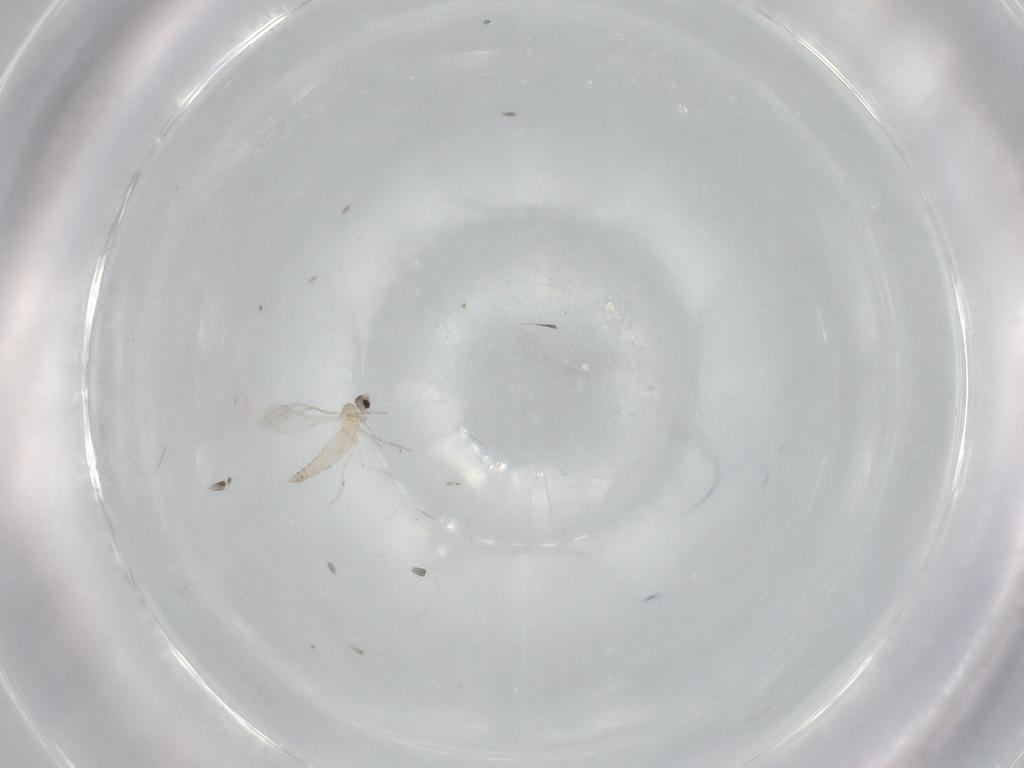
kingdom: Animalia
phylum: Arthropoda
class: Insecta
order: Diptera
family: Cecidomyiidae
